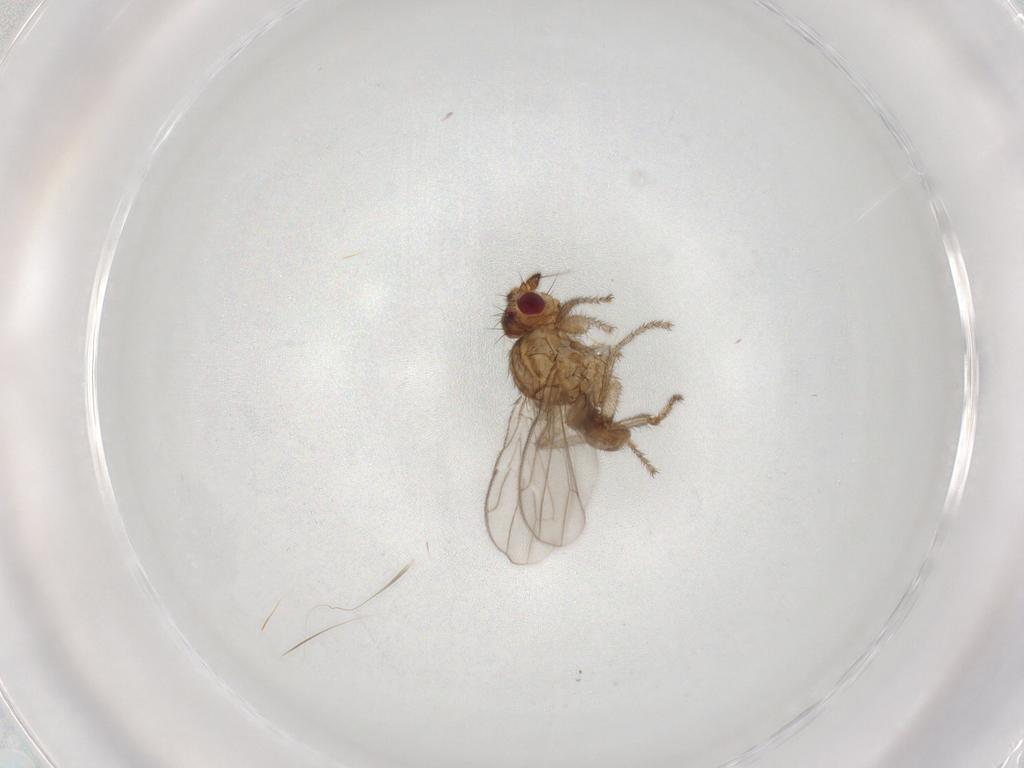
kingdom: Animalia
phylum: Arthropoda
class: Insecta
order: Diptera
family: Sphaeroceridae
